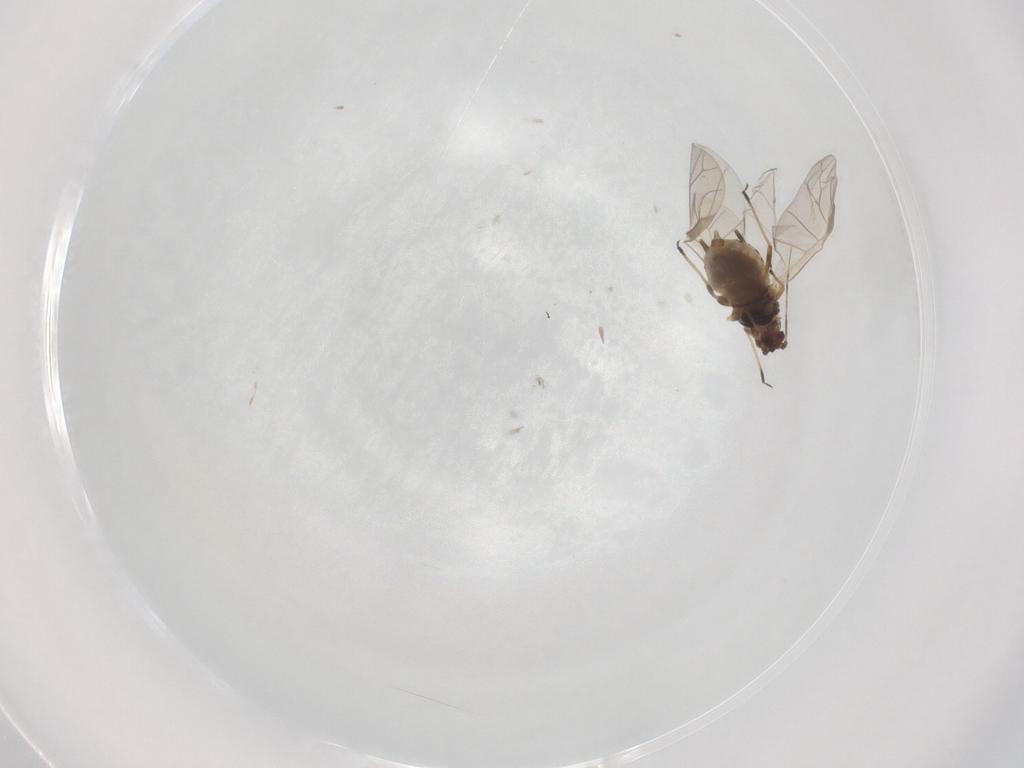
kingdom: Animalia
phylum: Arthropoda
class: Insecta
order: Hemiptera
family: Aphididae
